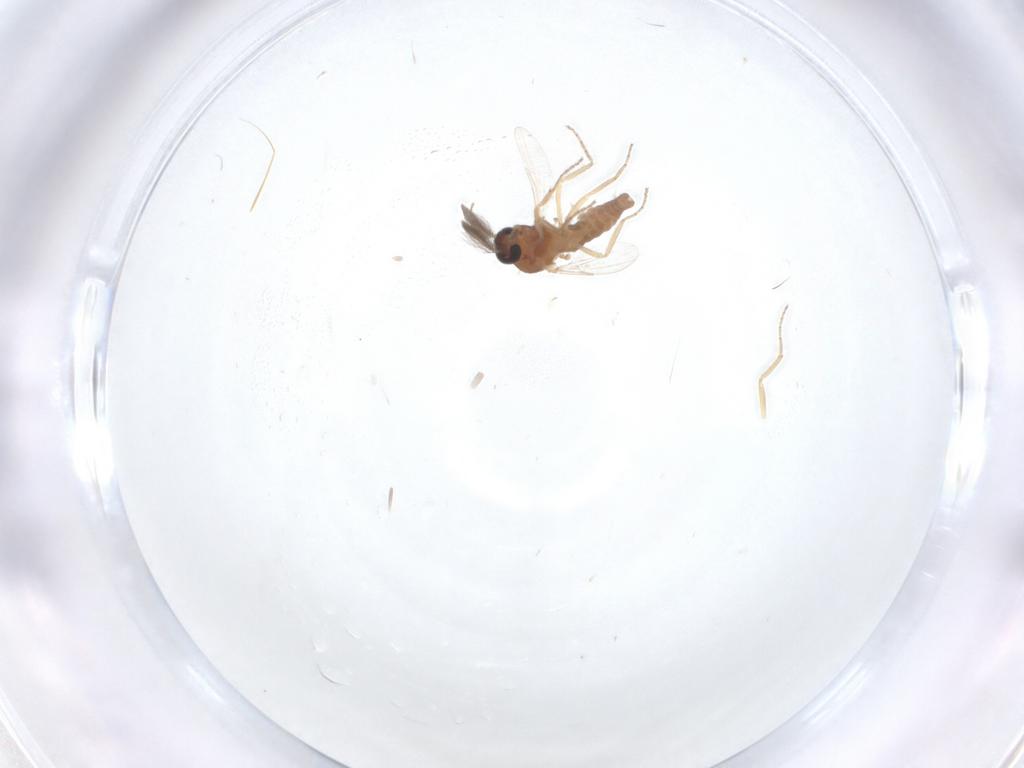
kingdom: Animalia
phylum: Arthropoda
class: Insecta
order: Diptera
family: Ceratopogonidae
